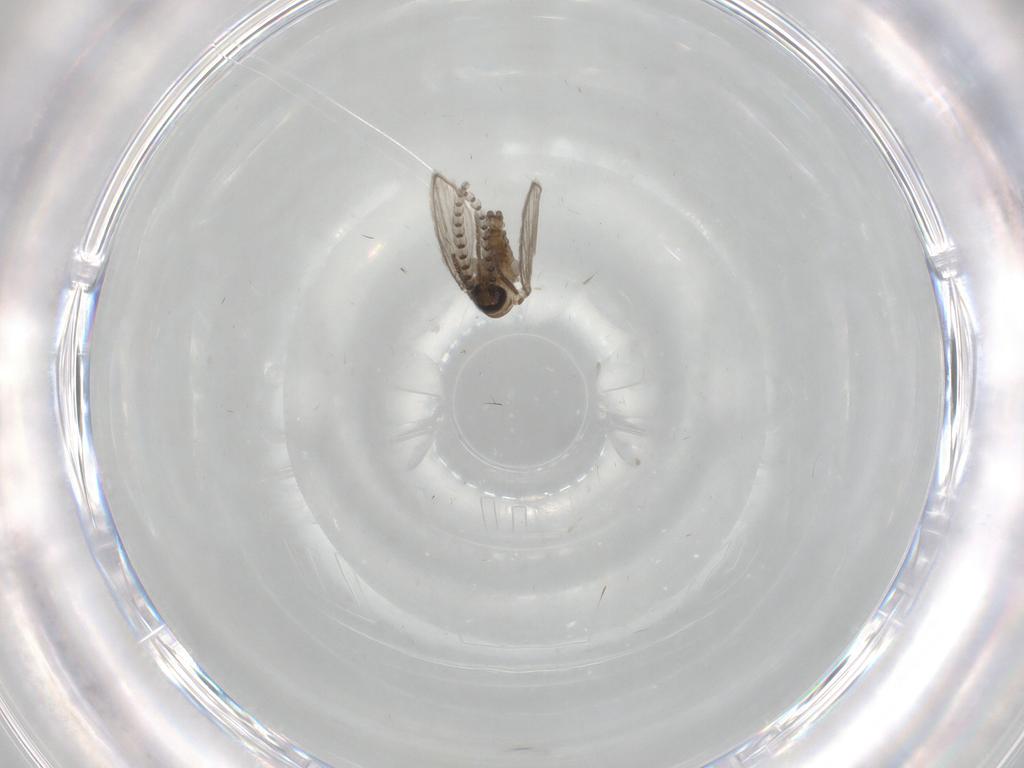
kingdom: Animalia
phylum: Arthropoda
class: Insecta
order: Diptera
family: Psychodidae
